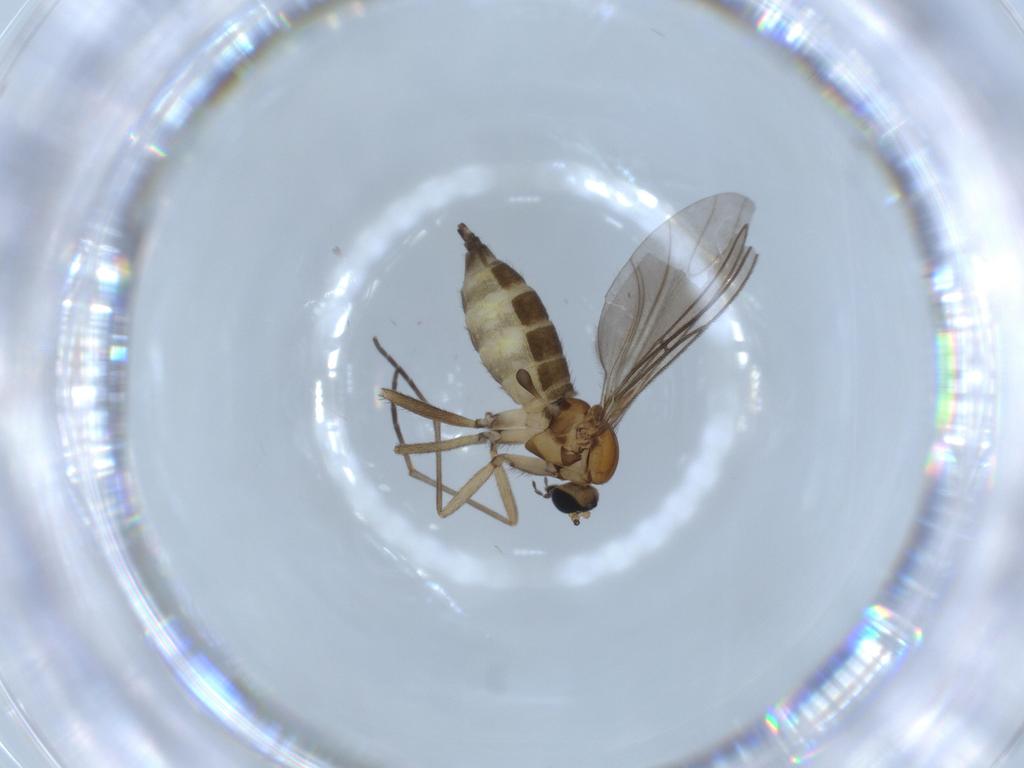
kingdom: Animalia
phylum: Arthropoda
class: Insecta
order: Diptera
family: Sciaridae
